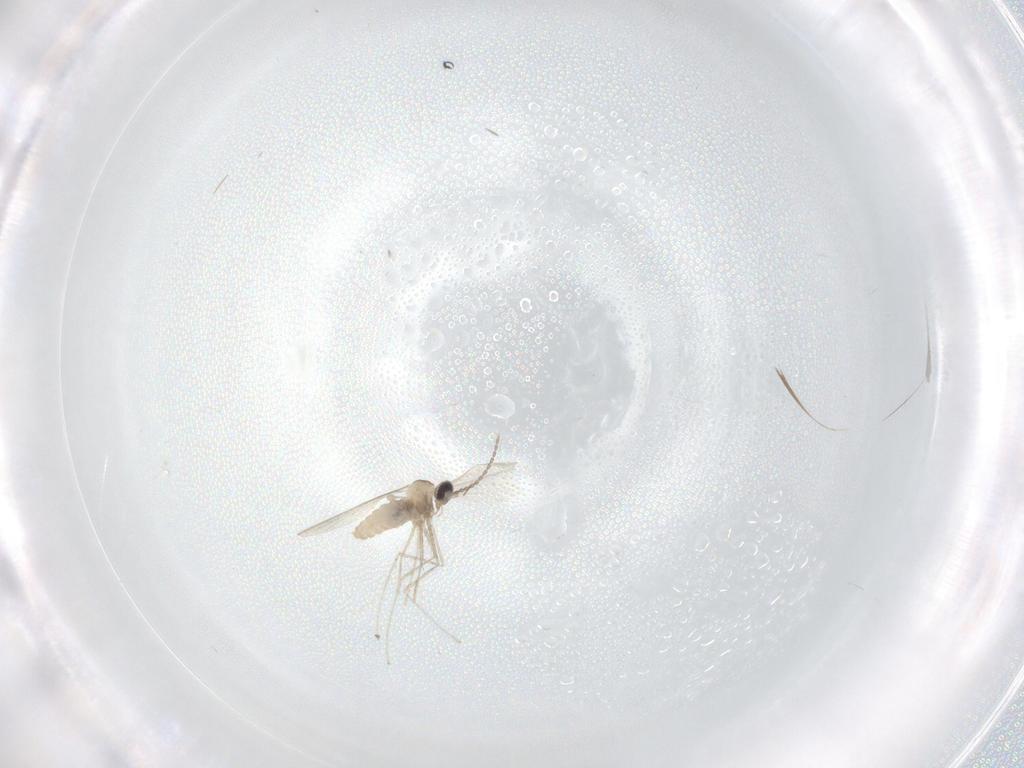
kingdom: Animalia
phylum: Arthropoda
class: Insecta
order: Diptera
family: Cecidomyiidae
